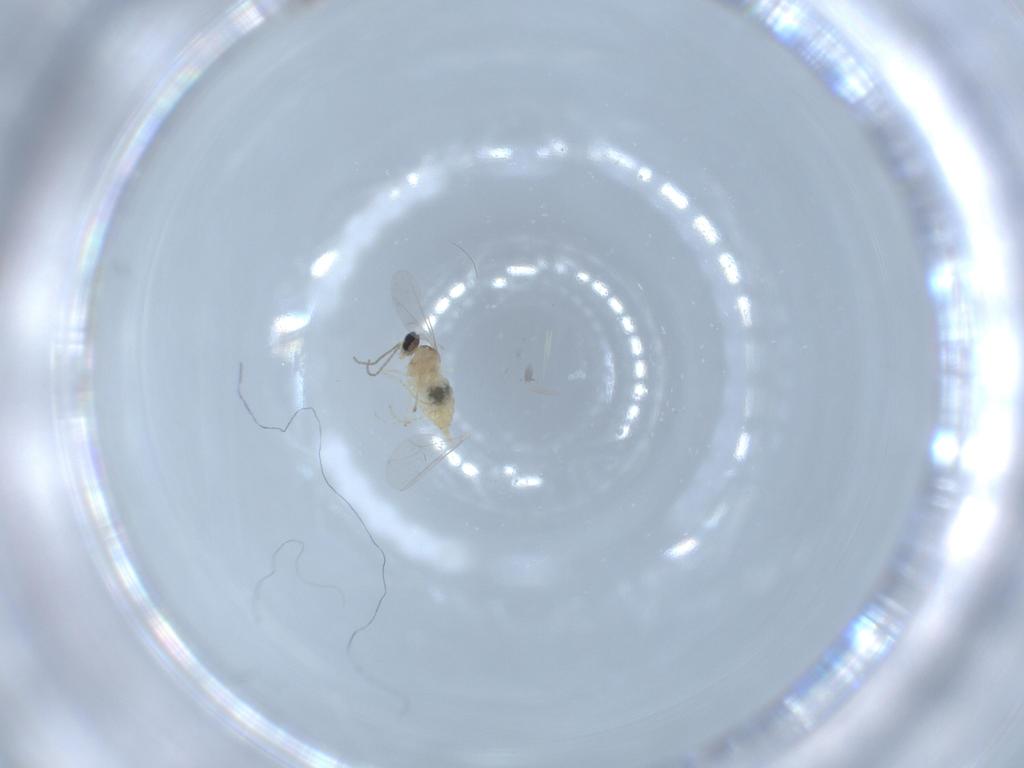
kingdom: Animalia
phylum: Arthropoda
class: Insecta
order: Diptera
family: Cecidomyiidae
